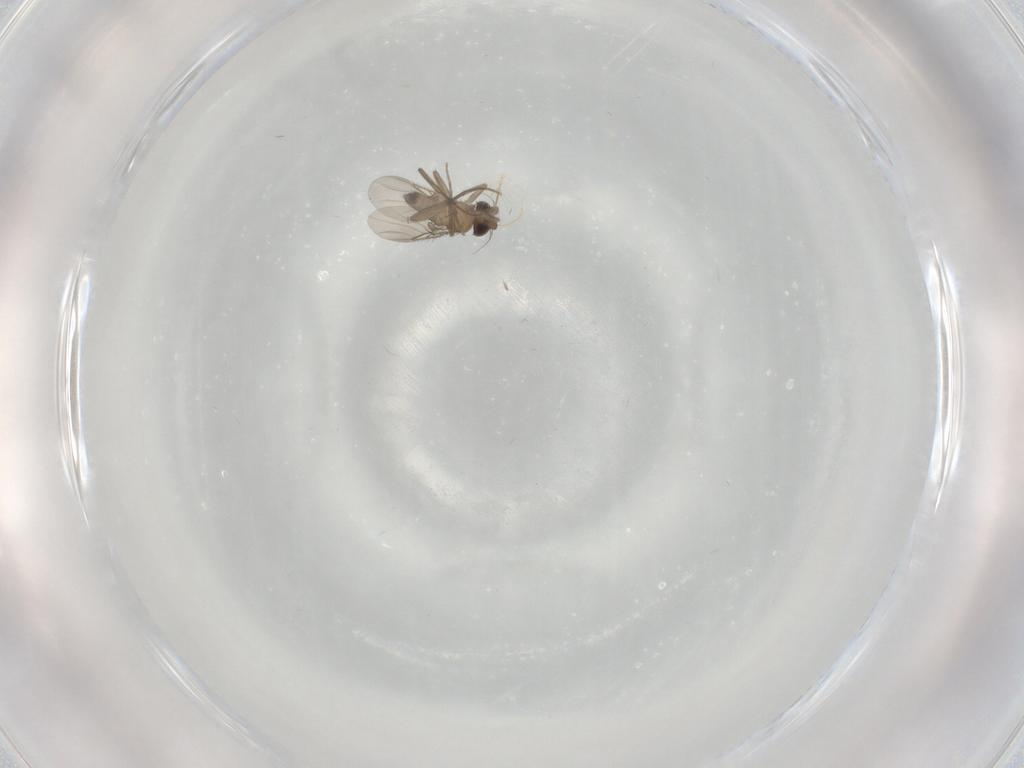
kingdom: Animalia
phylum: Arthropoda
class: Insecta
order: Diptera
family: Phoridae
